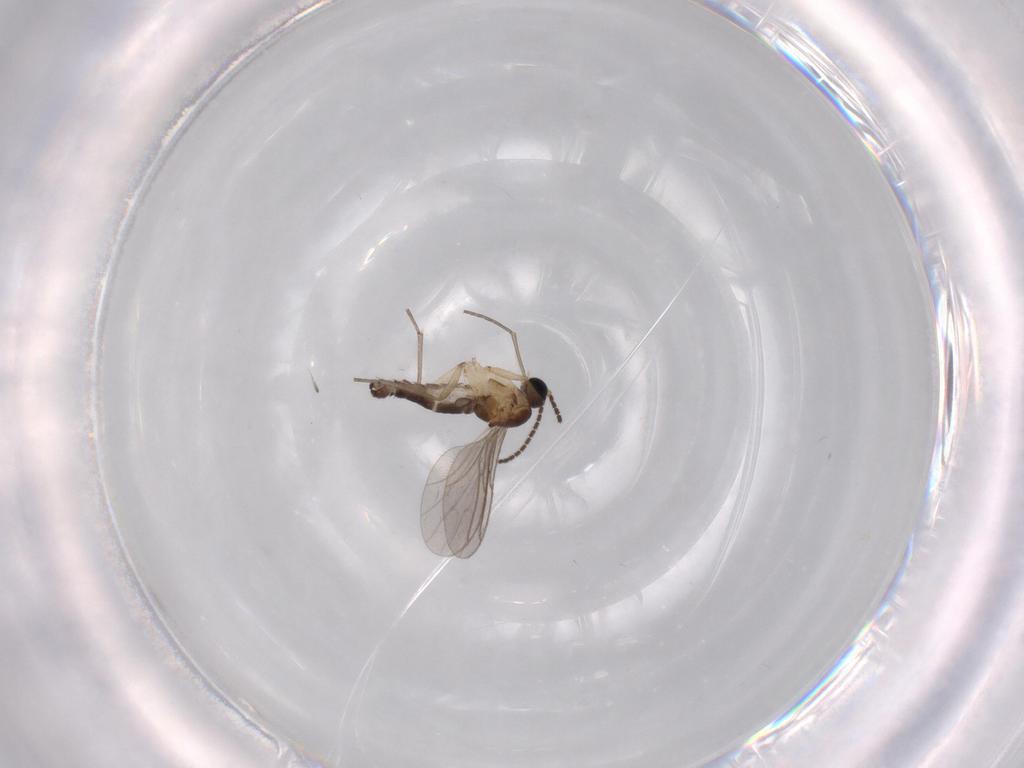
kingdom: Animalia
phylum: Arthropoda
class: Insecta
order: Diptera
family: Sciaridae
